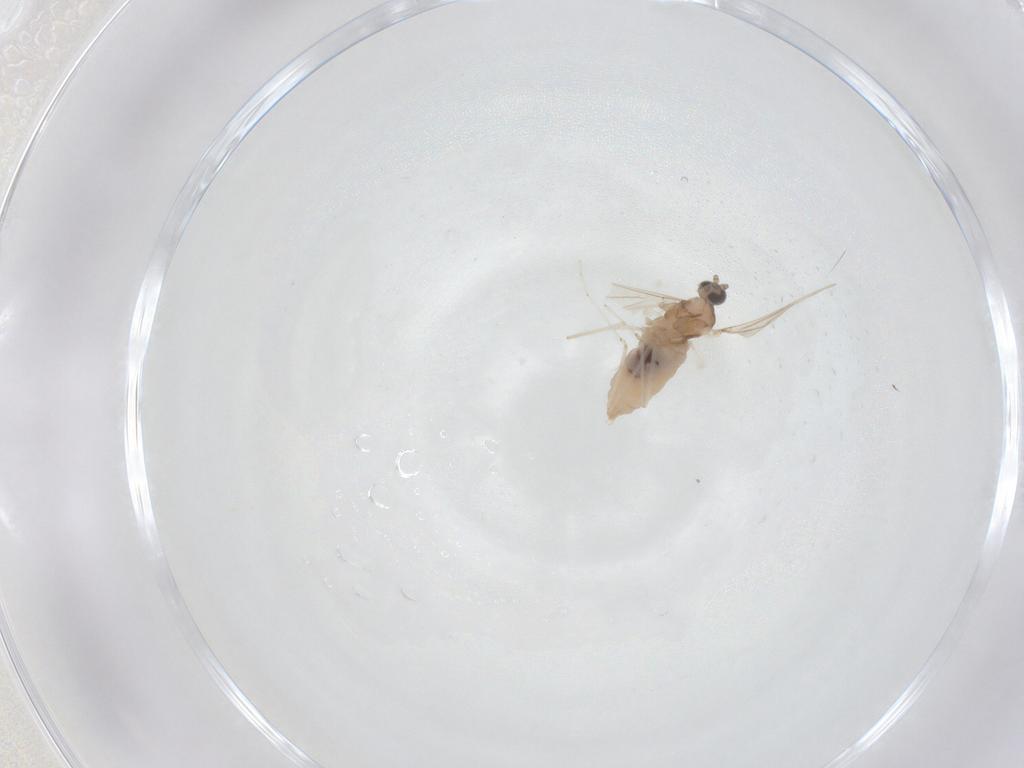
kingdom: Animalia
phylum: Arthropoda
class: Insecta
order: Diptera
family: Cecidomyiidae
